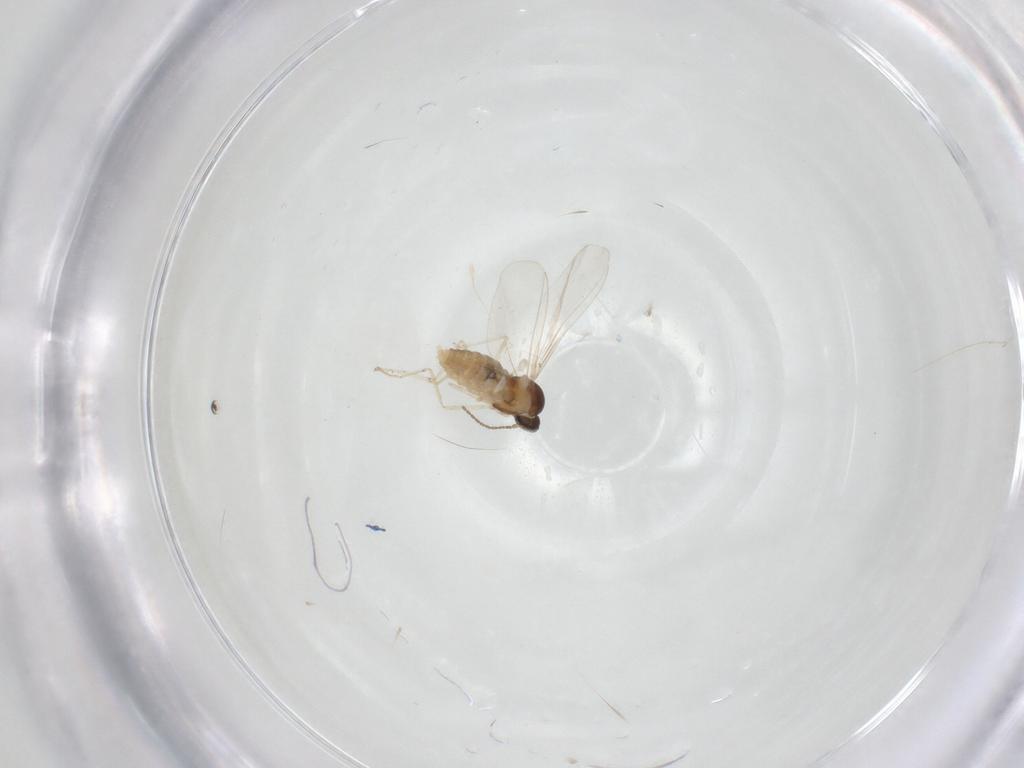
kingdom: Animalia
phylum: Arthropoda
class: Insecta
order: Diptera
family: Cecidomyiidae
